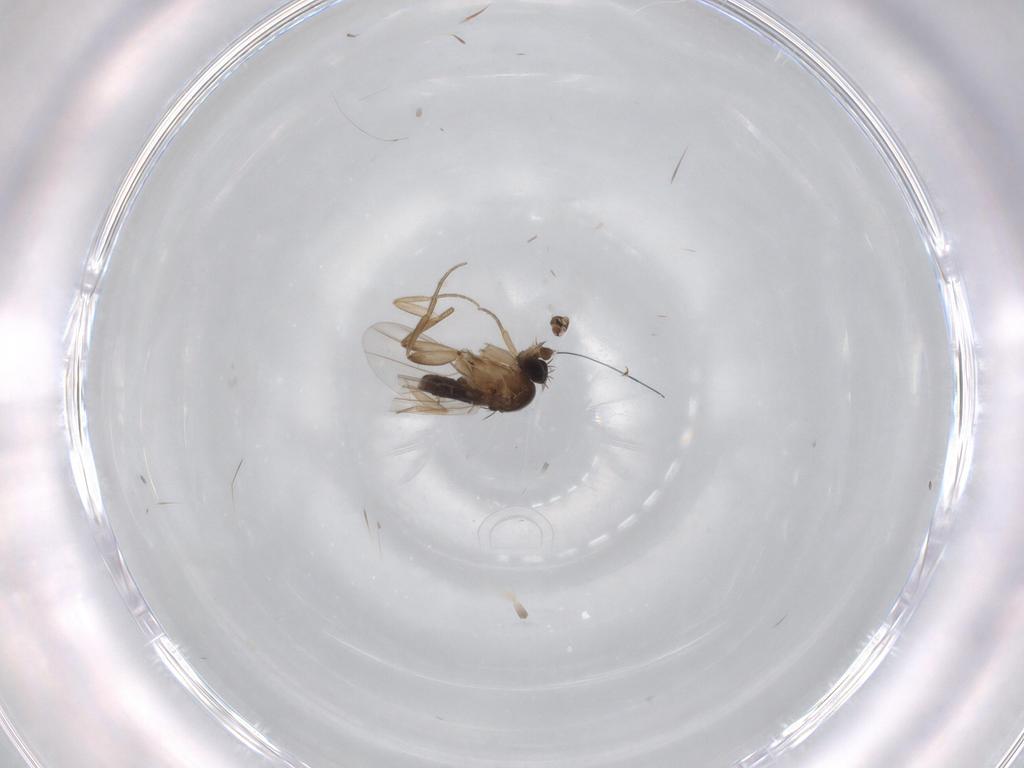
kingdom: Animalia
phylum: Arthropoda
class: Insecta
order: Diptera
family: Phoridae
